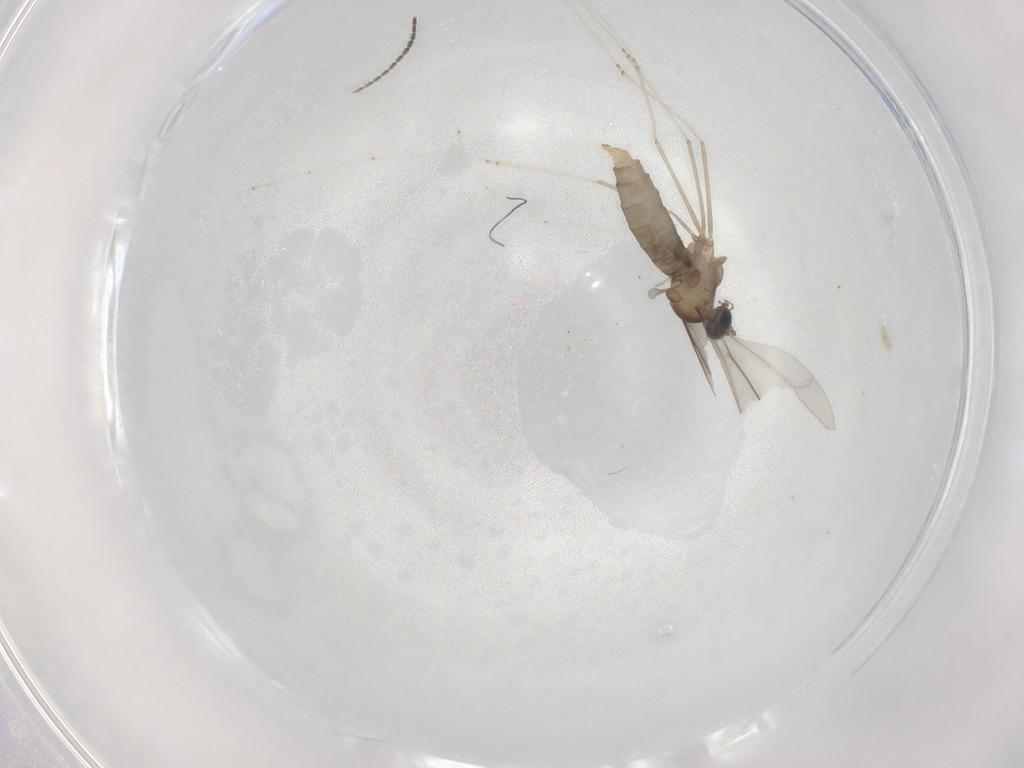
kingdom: Animalia
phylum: Arthropoda
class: Insecta
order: Diptera
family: Cecidomyiidae
